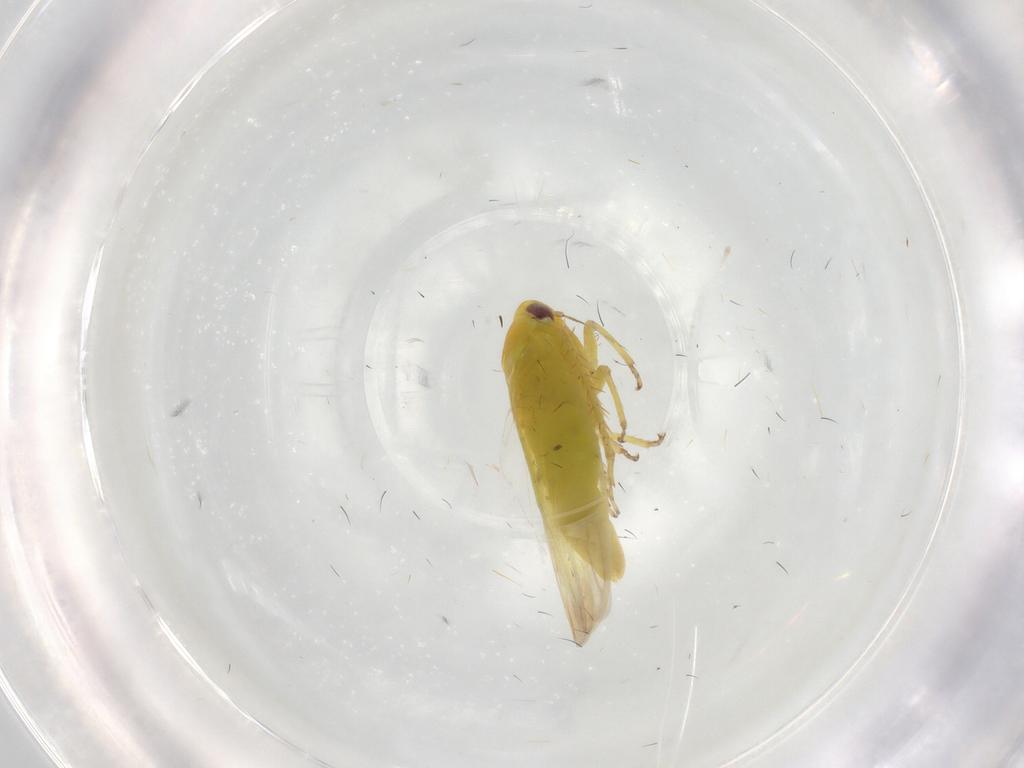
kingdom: Animalia
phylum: Arthropoda
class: Insecta
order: Hemiptera
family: Cicadellidae
